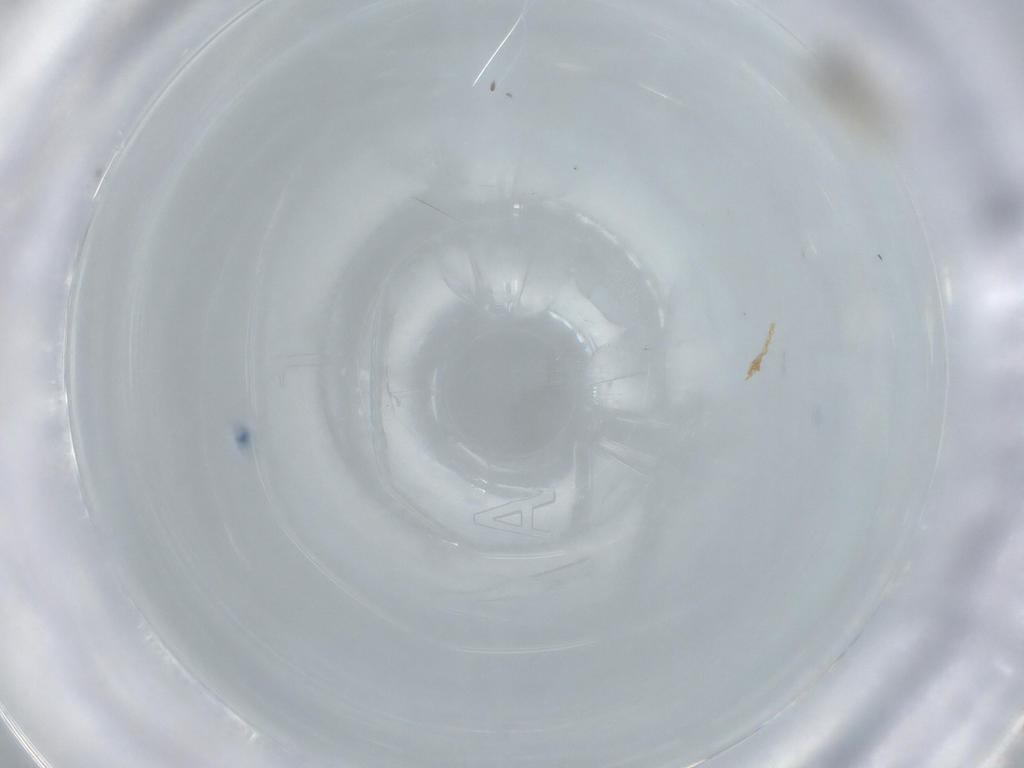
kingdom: Animalia
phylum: Arthropoda
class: Insecta
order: Diptera
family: Cecidomyiidae
